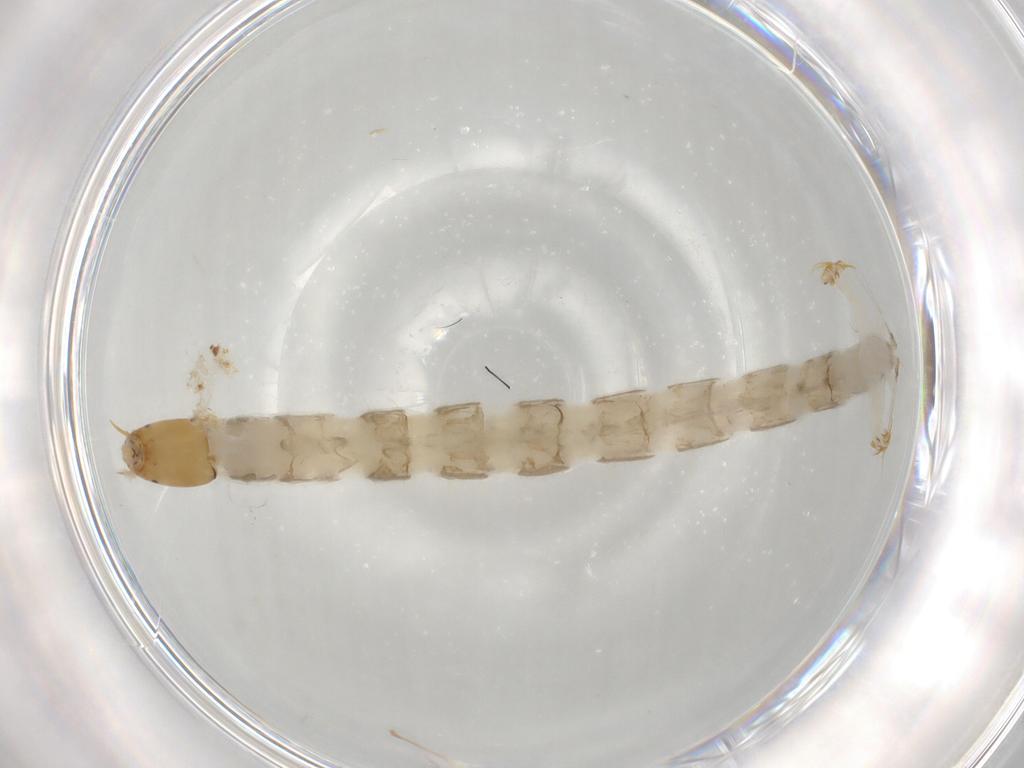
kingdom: Animalia
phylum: Arthropoda
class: Insecta
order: Diptera
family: Chironomidae
